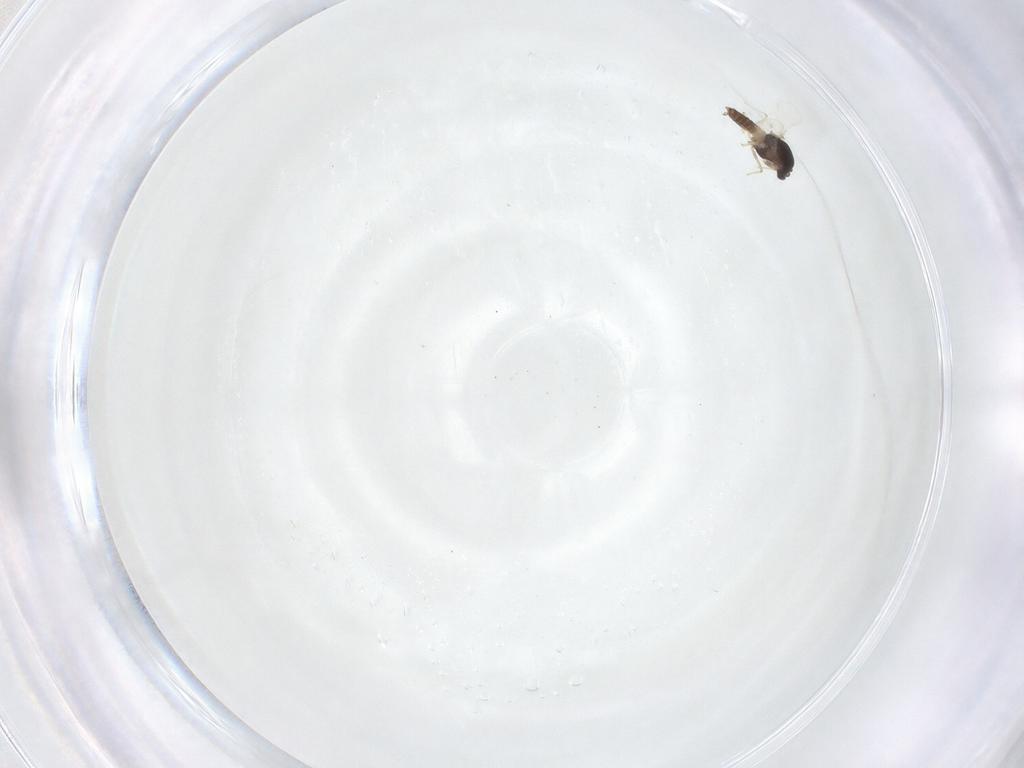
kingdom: Animalia
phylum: Arthropoda
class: Insecta
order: Diptera
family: Chironomidae
